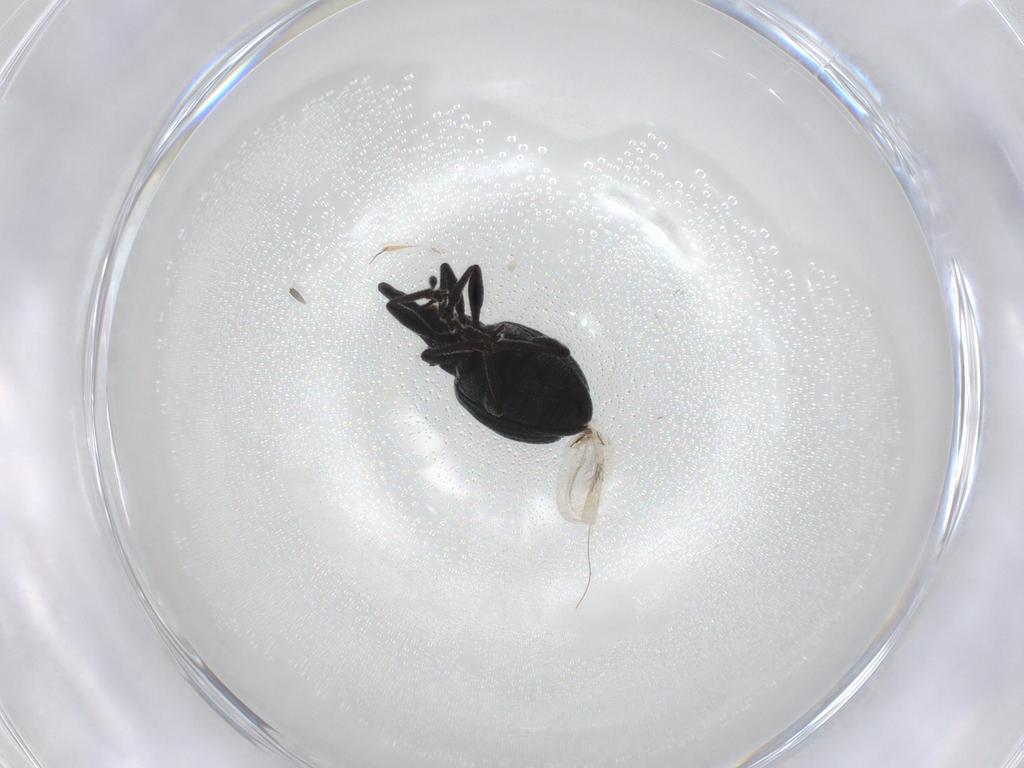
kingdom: Animalia
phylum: Arthropoda
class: Insecta
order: Coleoptera
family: Brentidae
